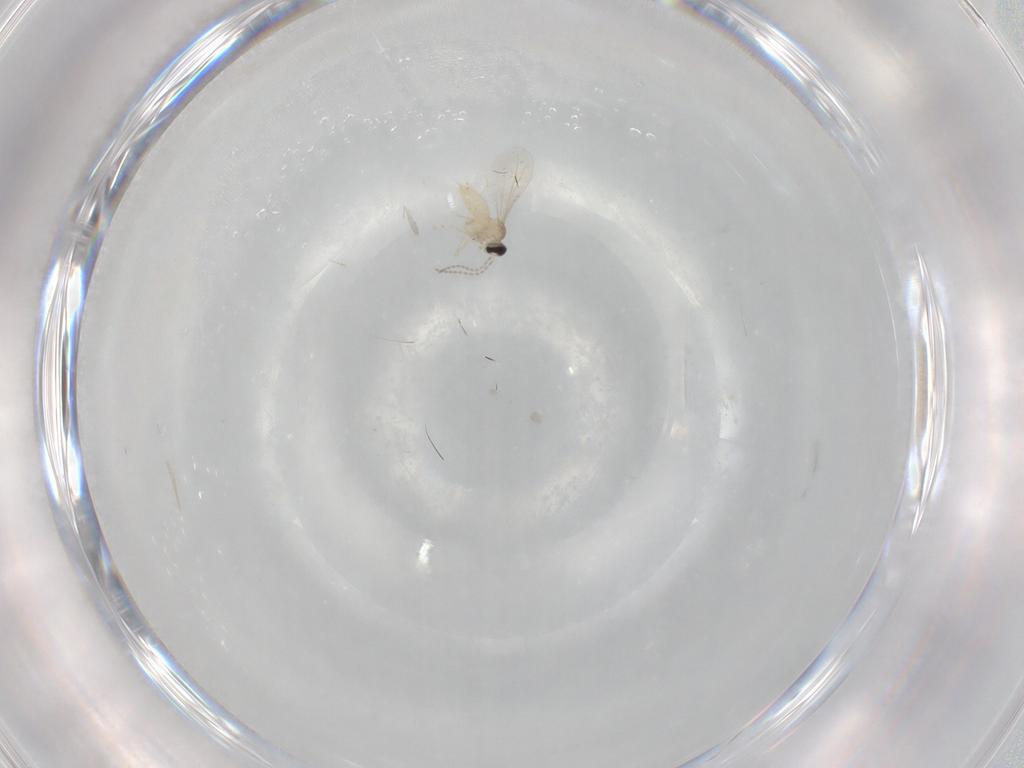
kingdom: Animalia
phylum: Arthropoda
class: Insecta
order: Diptera
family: Cecidomyiidae
